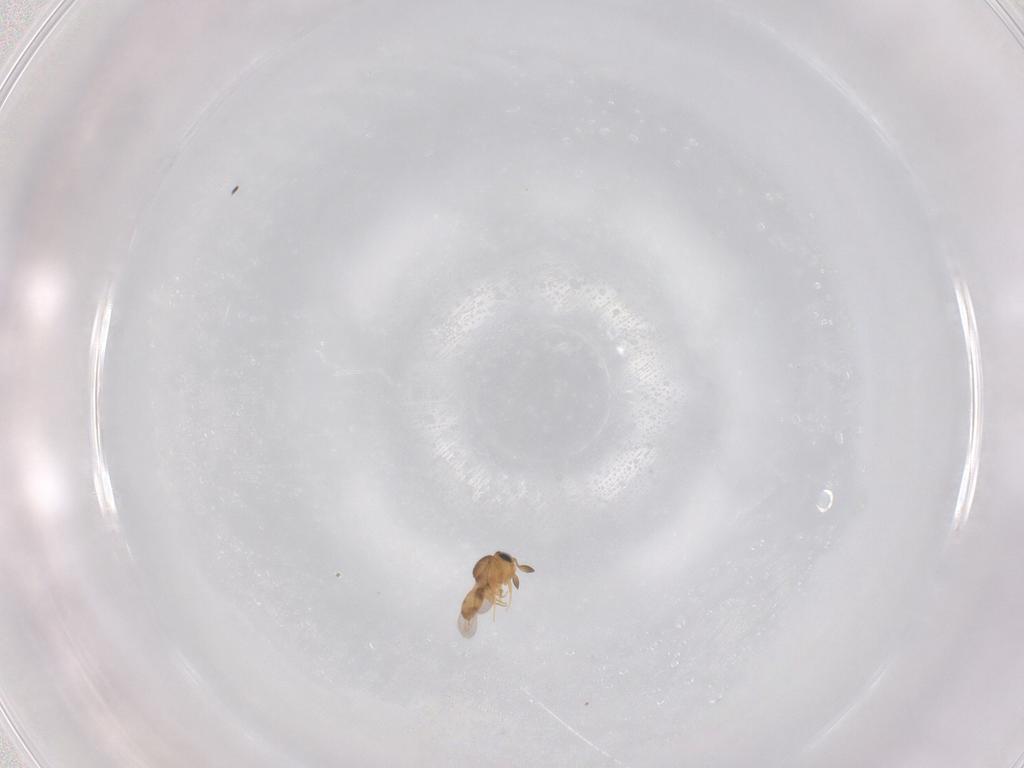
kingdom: Animalia
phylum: Arthropoda
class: Insecta
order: Hymenoptera
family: Scelionidae
